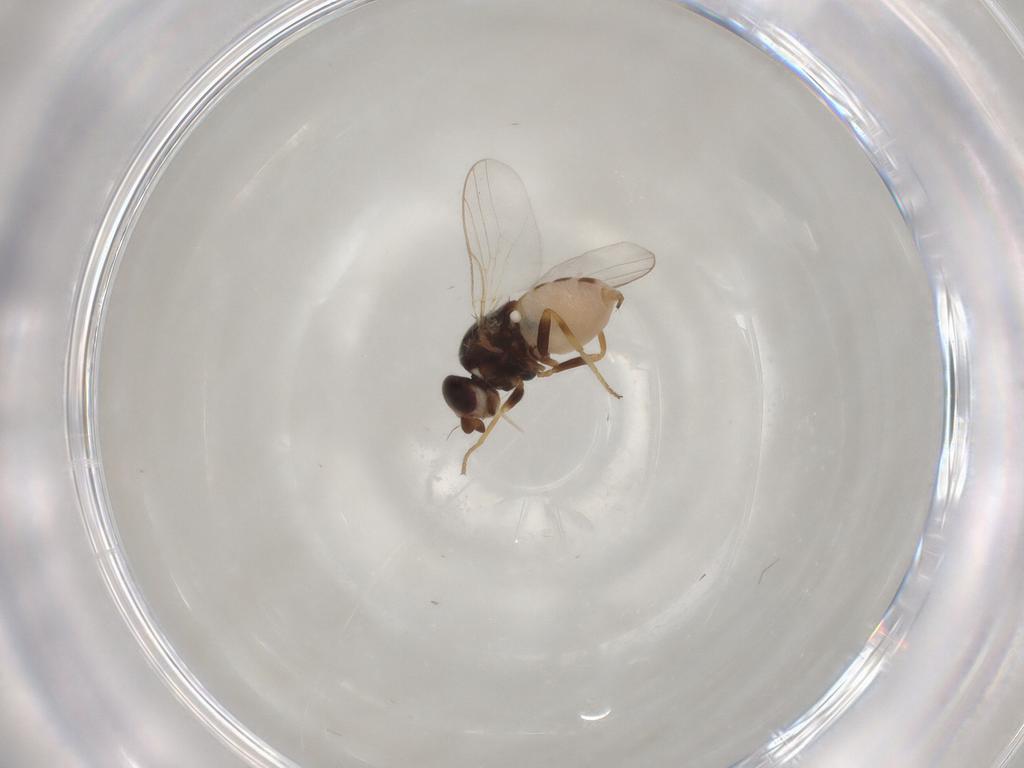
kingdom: Animalia
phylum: Arthropoda
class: Insecta
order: Diptera
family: Chloropidae
